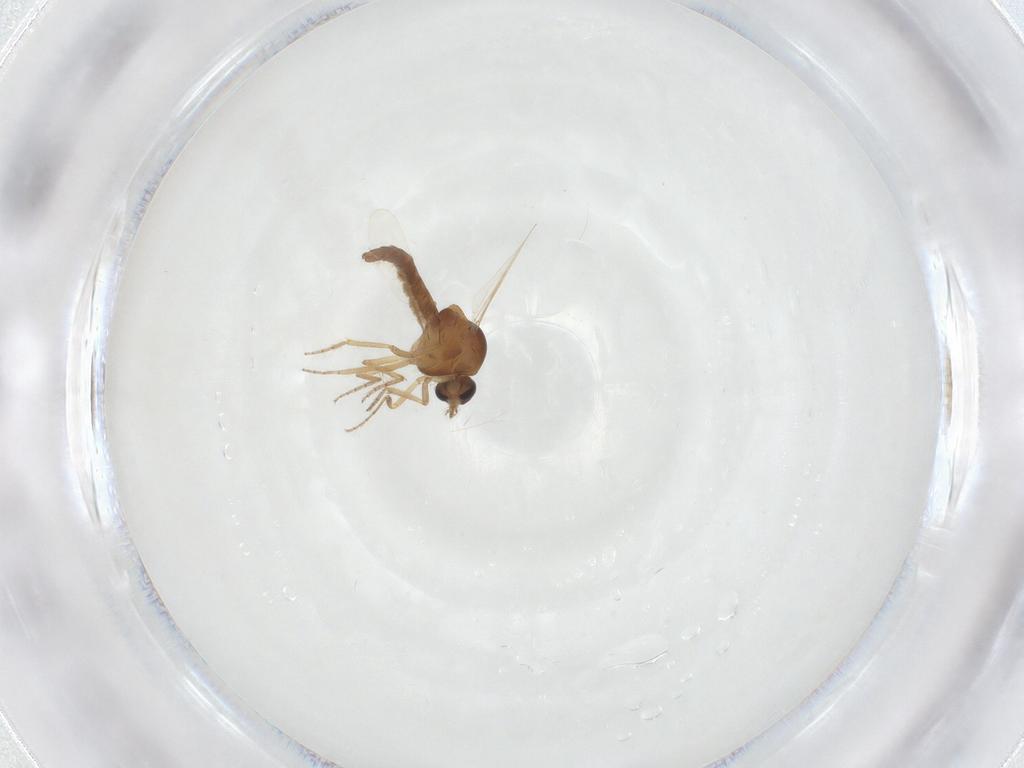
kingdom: Animalia
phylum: Arthropoda
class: Insecta
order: Diptera
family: Ceratopogonidae
